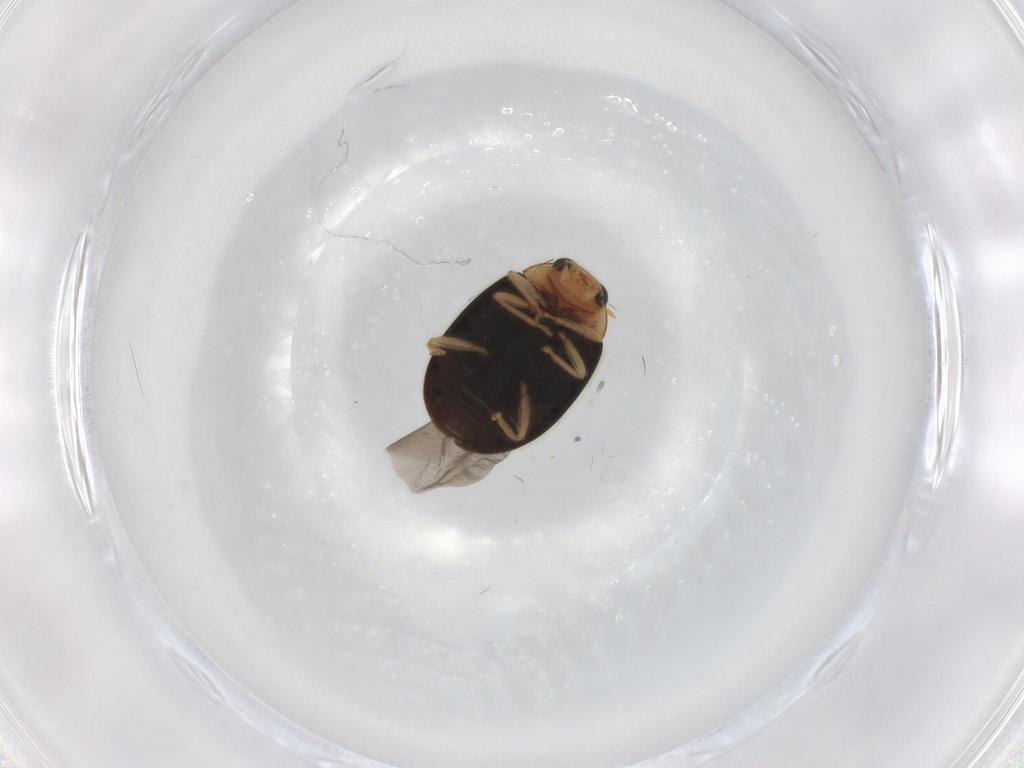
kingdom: Animalia
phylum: Arthropoda
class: Insecta
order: Coleoptera
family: Coccinellidae
